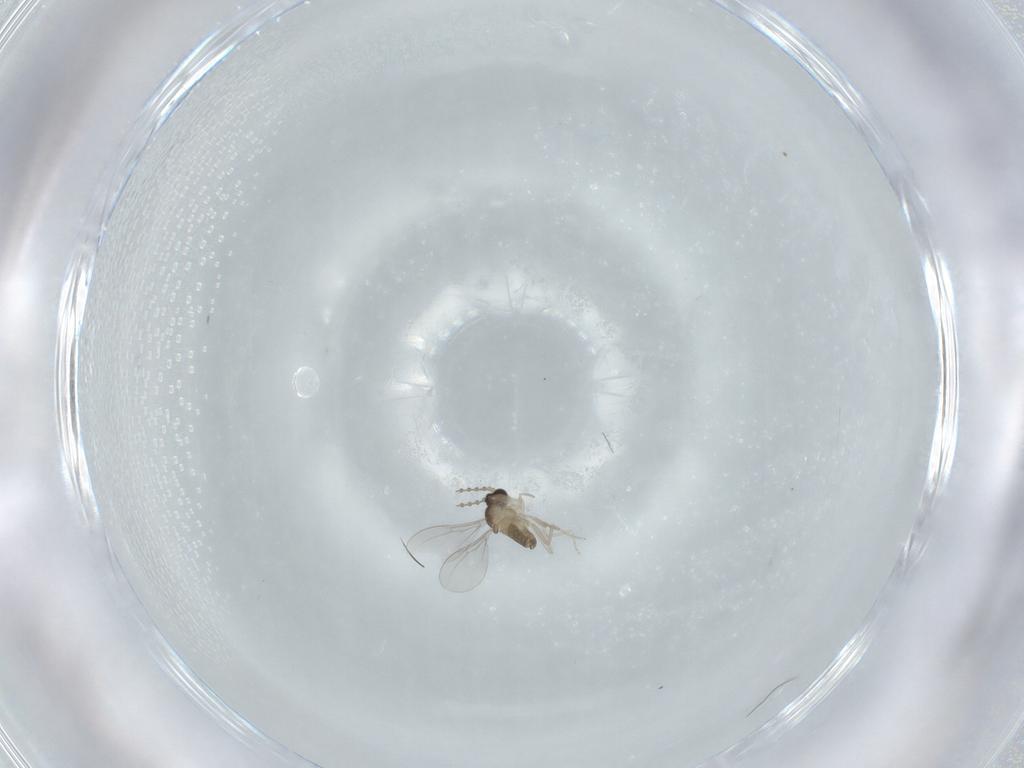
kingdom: Animalia
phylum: Arthropoda
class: Insecta
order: Diptera
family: Cecidomyiidae
